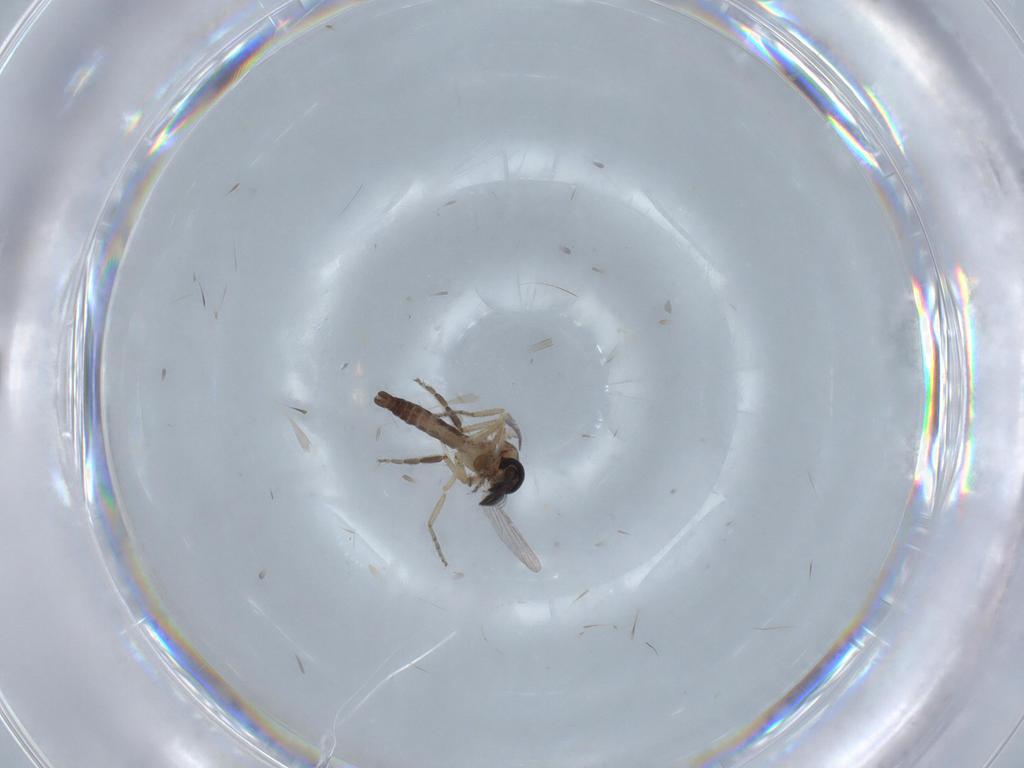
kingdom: Animalia
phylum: Arthropoda
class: Insecta
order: Diptera
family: Ceratopogonidae
